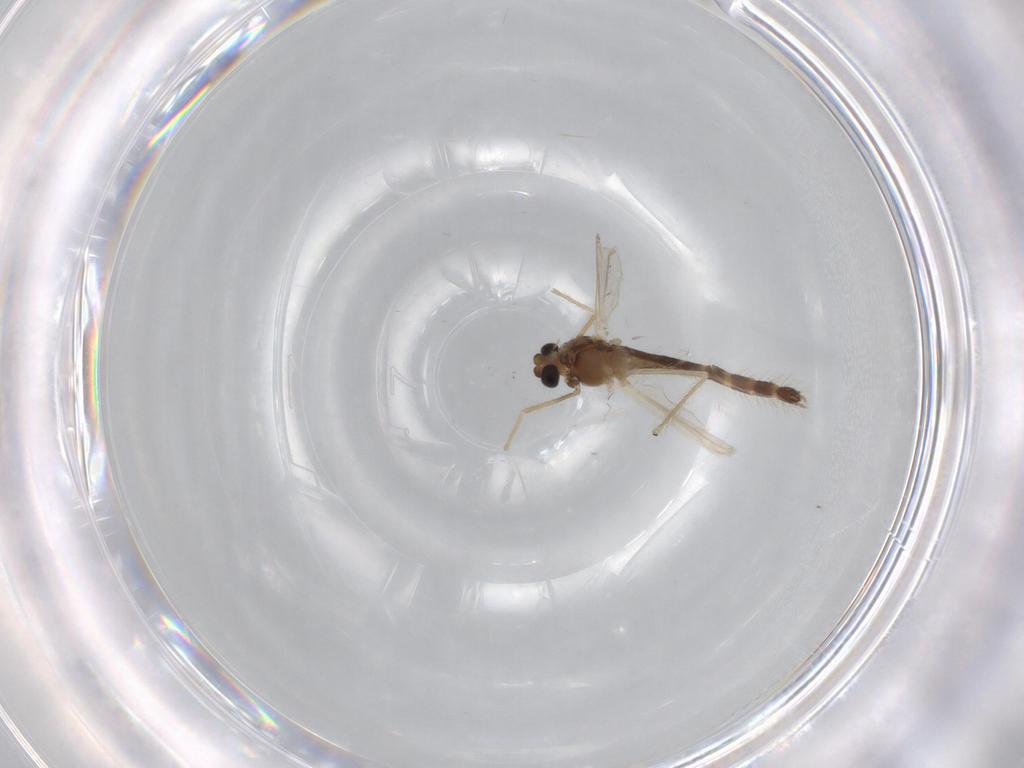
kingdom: Animalia
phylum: Arthropoda
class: Insecta
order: Diptera
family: Chironomidae
